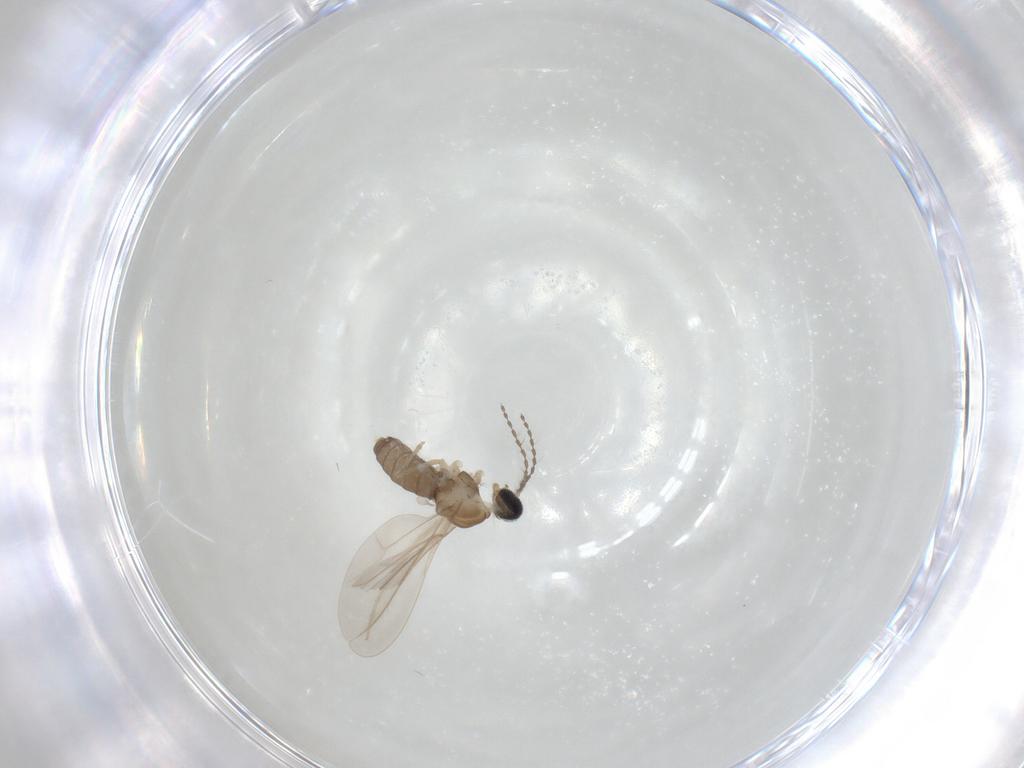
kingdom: Animalia
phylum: Arthropoda
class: Insecta
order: Diptera
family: Cecidomyiidae
